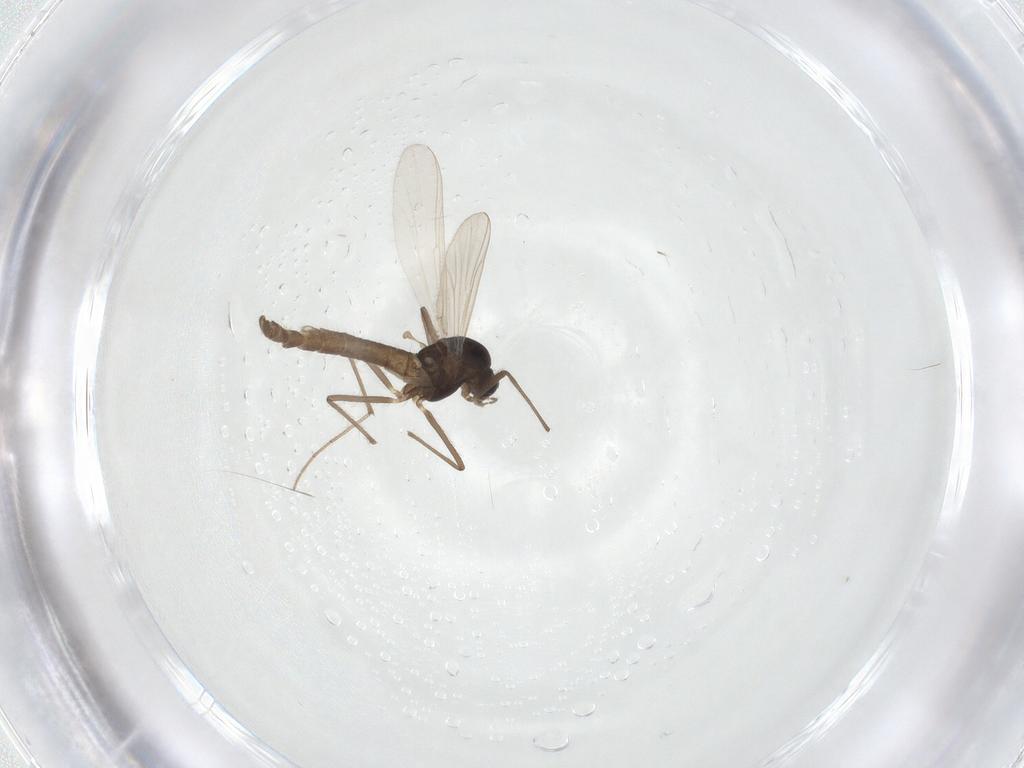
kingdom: Animalia
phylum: Arthropoda
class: Insecta
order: Diptera
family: Chironomidae
